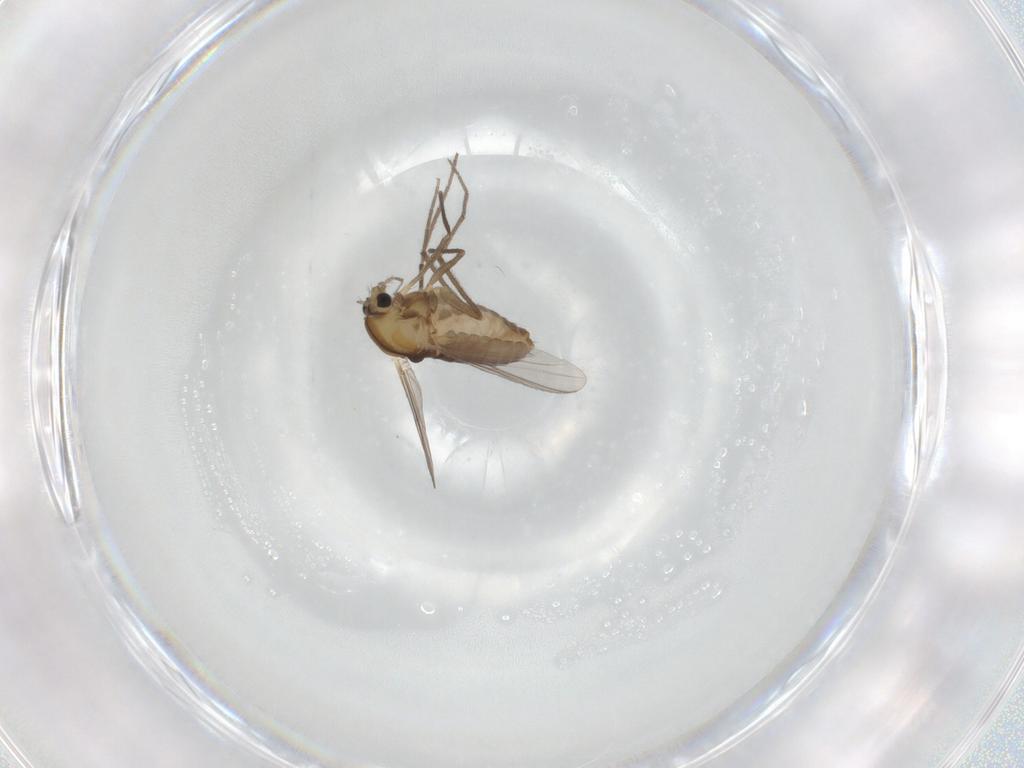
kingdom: Animalia
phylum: Arthropoda
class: Insecta
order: Diptera
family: Chironomidae
